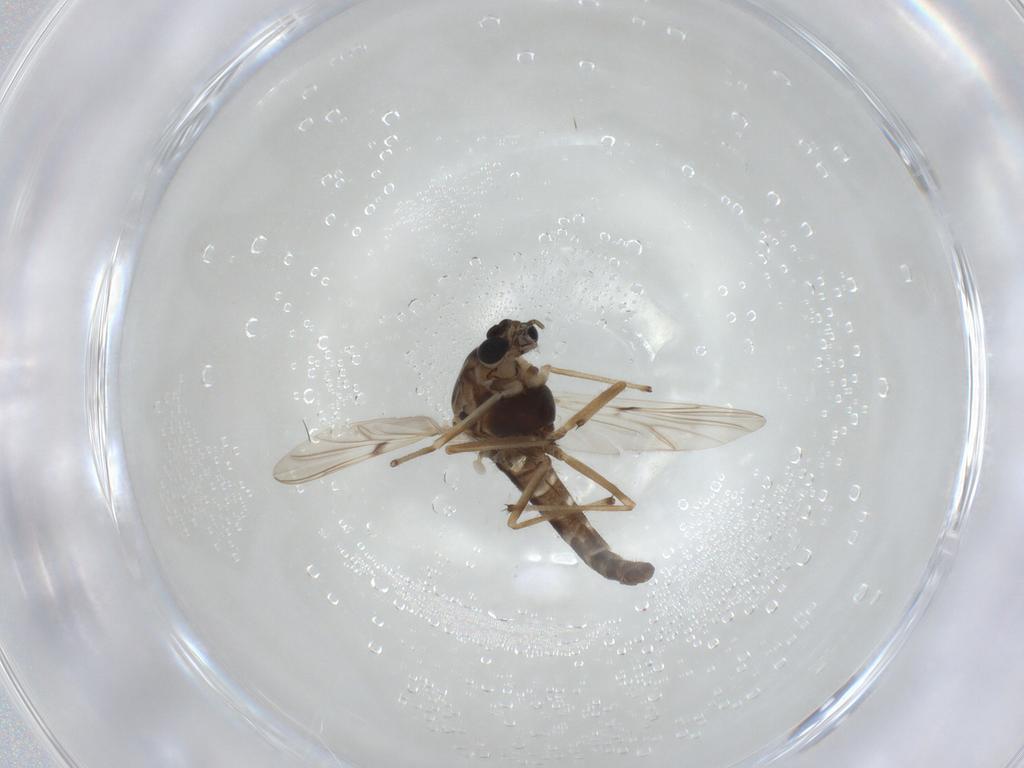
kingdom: Animalia
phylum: Arthropoda
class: Insecta
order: Diptera
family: Chironomidae
